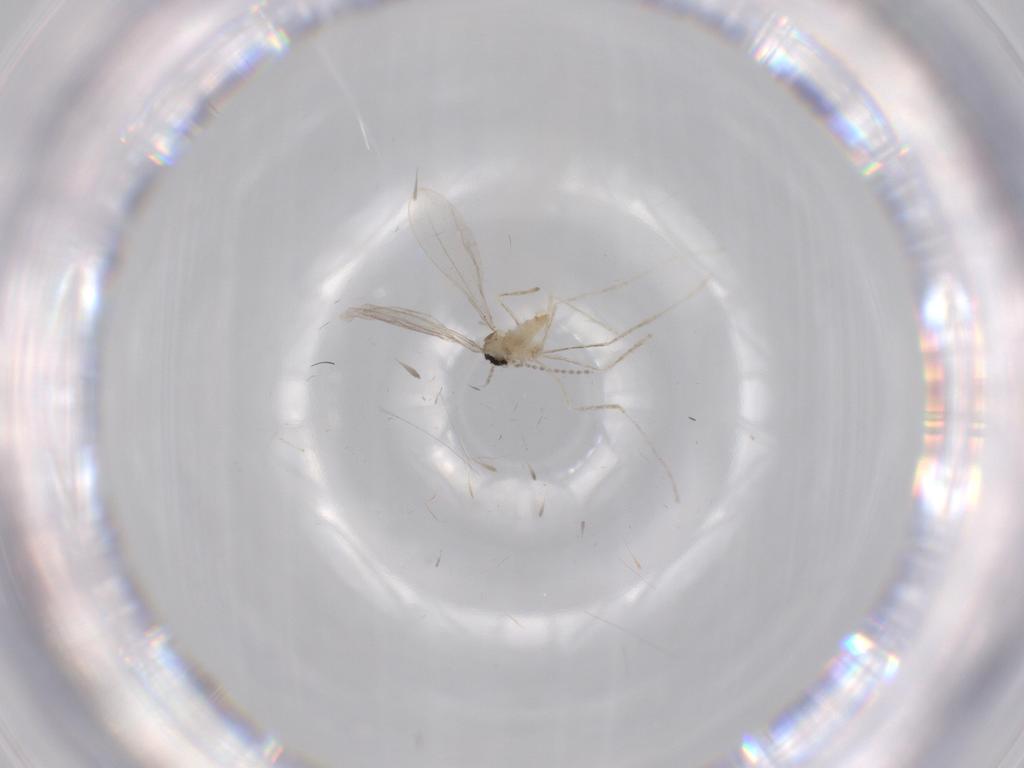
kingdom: Animalia
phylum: Arthropoda
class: Insecta
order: Diptera
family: Cecidomyiidae
